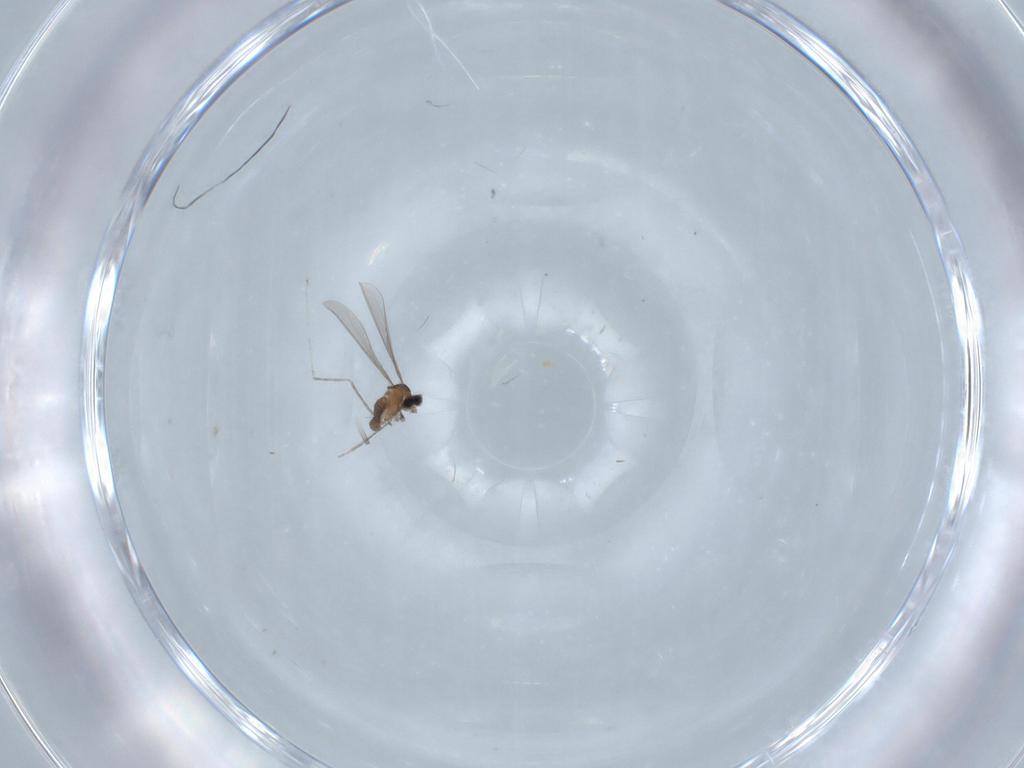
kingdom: Animalia
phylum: Arthropoda
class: Insecta
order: Diptera
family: Cecidomyiidae
